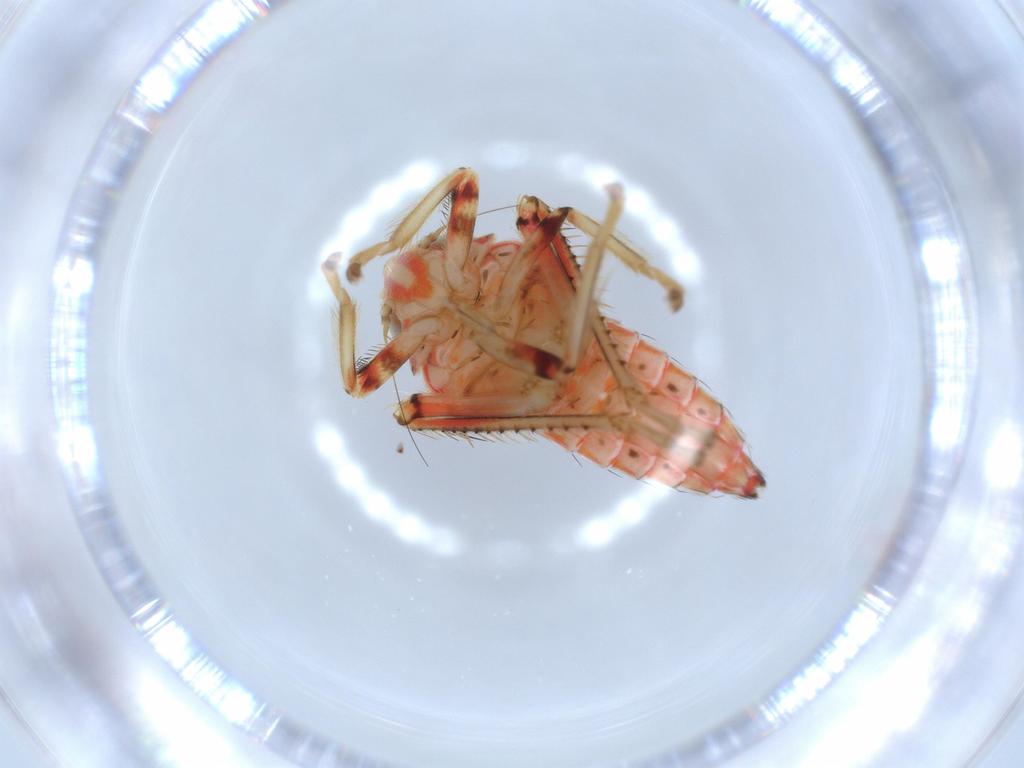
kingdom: Animalia
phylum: Arthropoda
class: Insecta
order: Hemiptera
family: Cicadellidae
